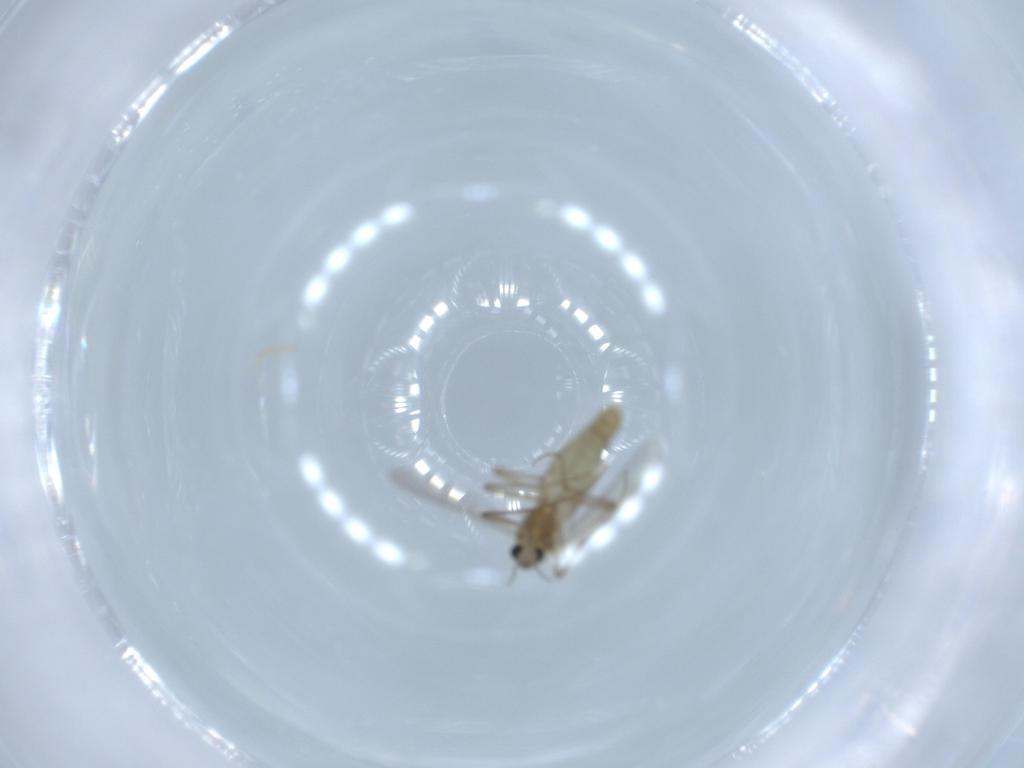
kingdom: Animalia
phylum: Arthropoda
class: Insecta
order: Diptera
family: Chironomidae
